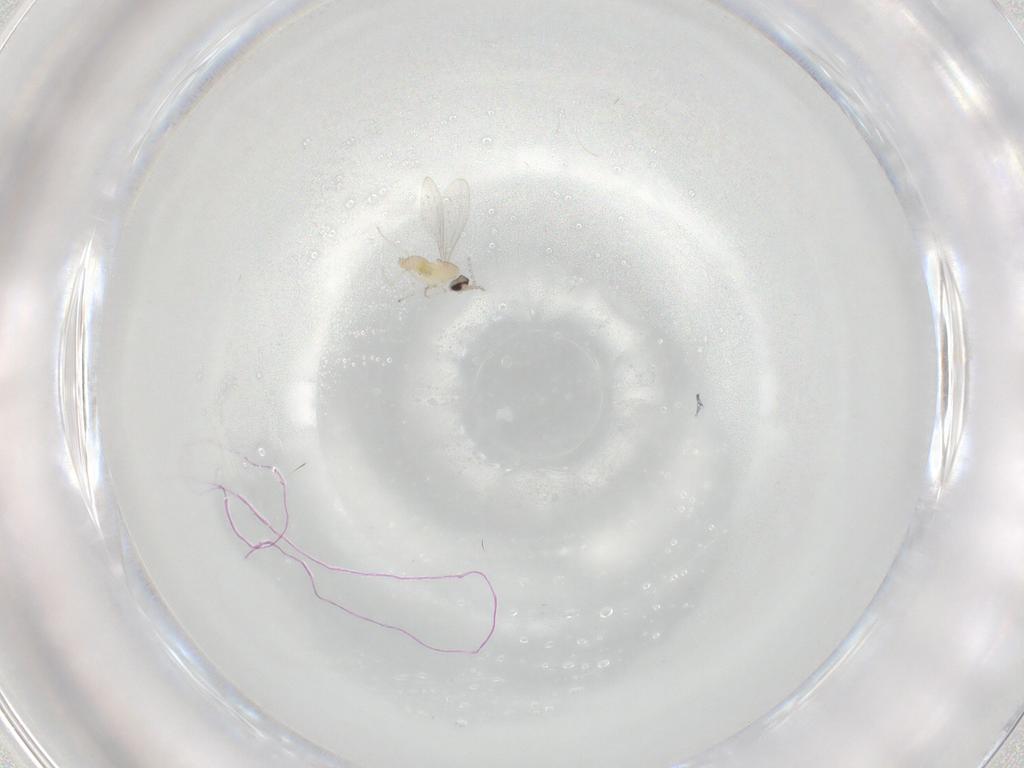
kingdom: Animalia
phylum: Arthropoda
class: Insecta
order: Diptera
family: Cecidomyiidae
